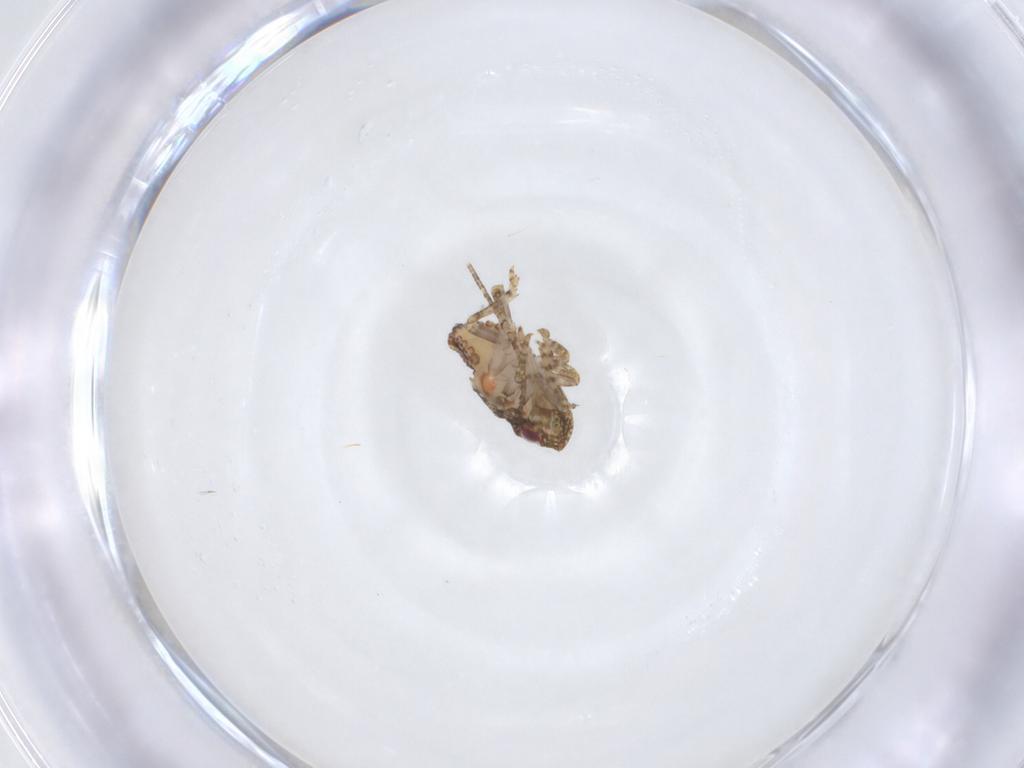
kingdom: Animalia
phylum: Arthropoda
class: Insecta
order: Hemiptera
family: Nogodinidae
